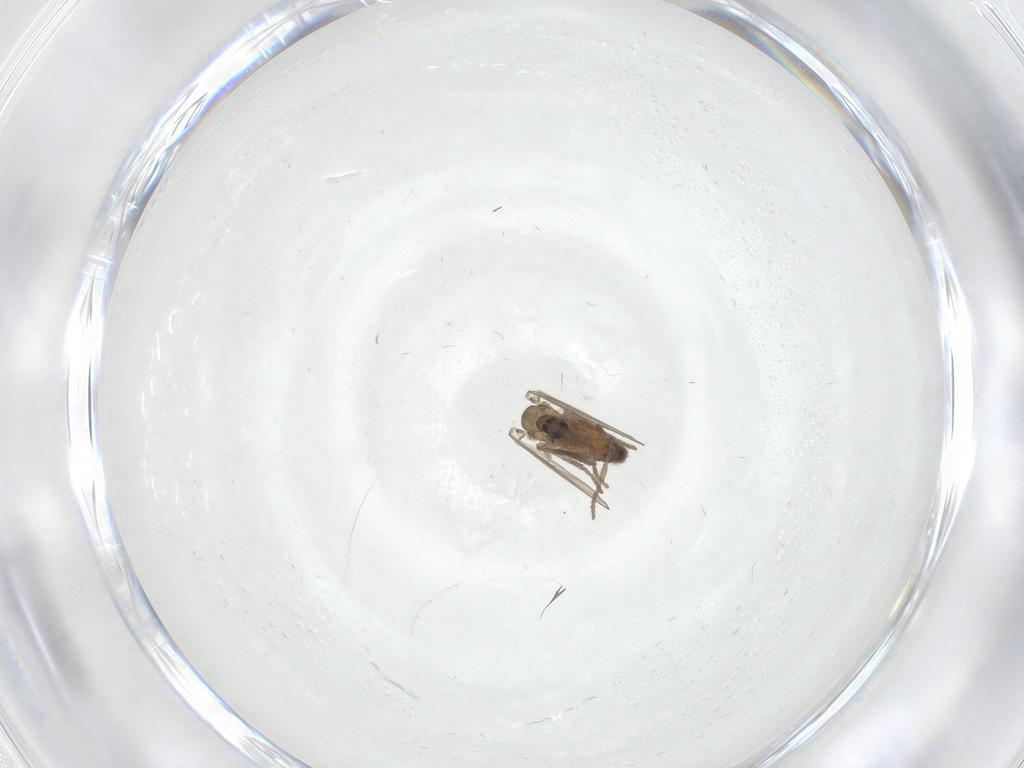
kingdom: Animalia
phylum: Arthropoda
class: Insecta
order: Diptera
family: Psychodidae
